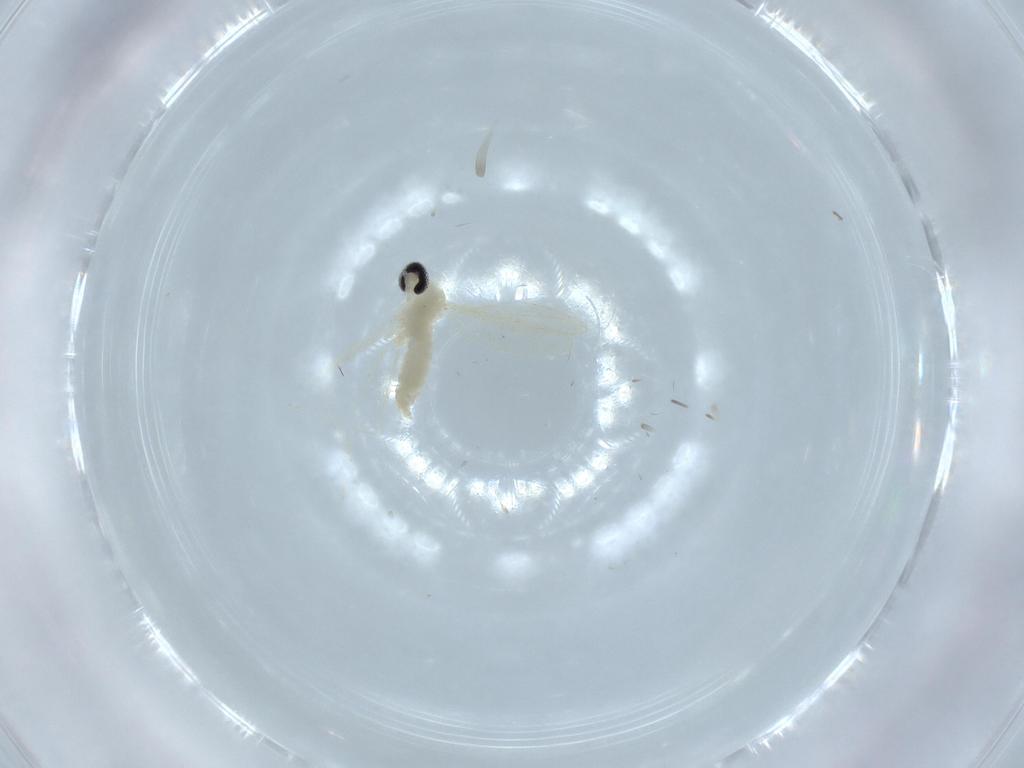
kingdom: Animalia
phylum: Arthropoda
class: Insecta
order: Diptera
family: Cecidomyiidae
